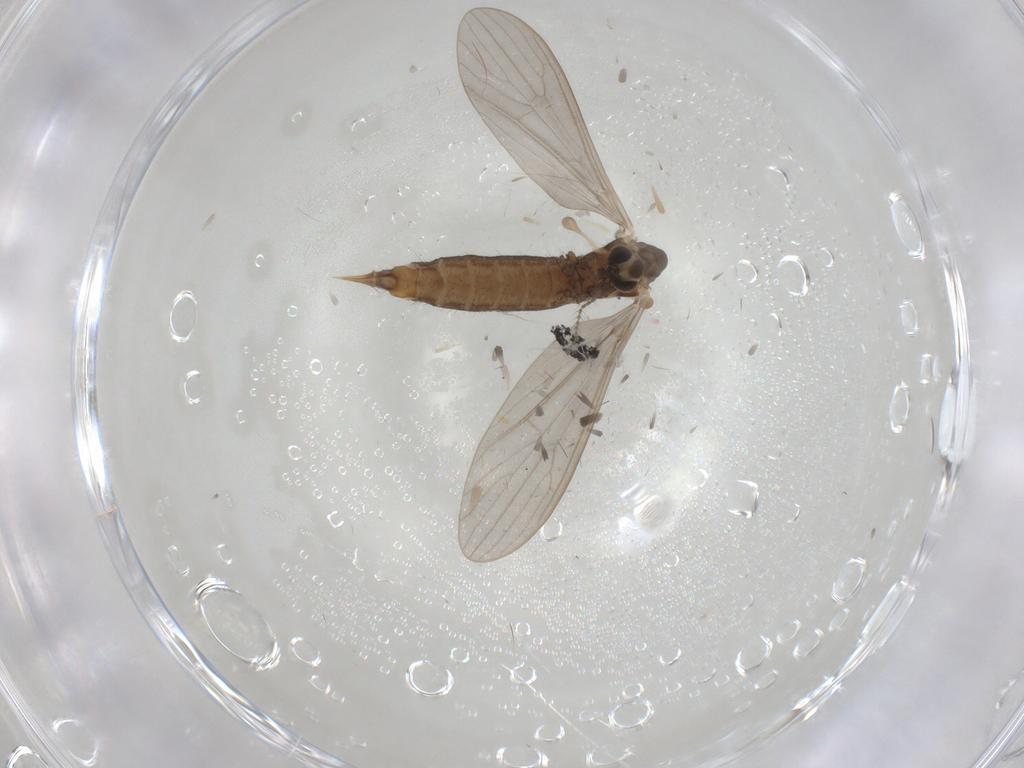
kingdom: Animalia
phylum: Arthropoda
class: Insecta
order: Diptera
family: Limoniidae
